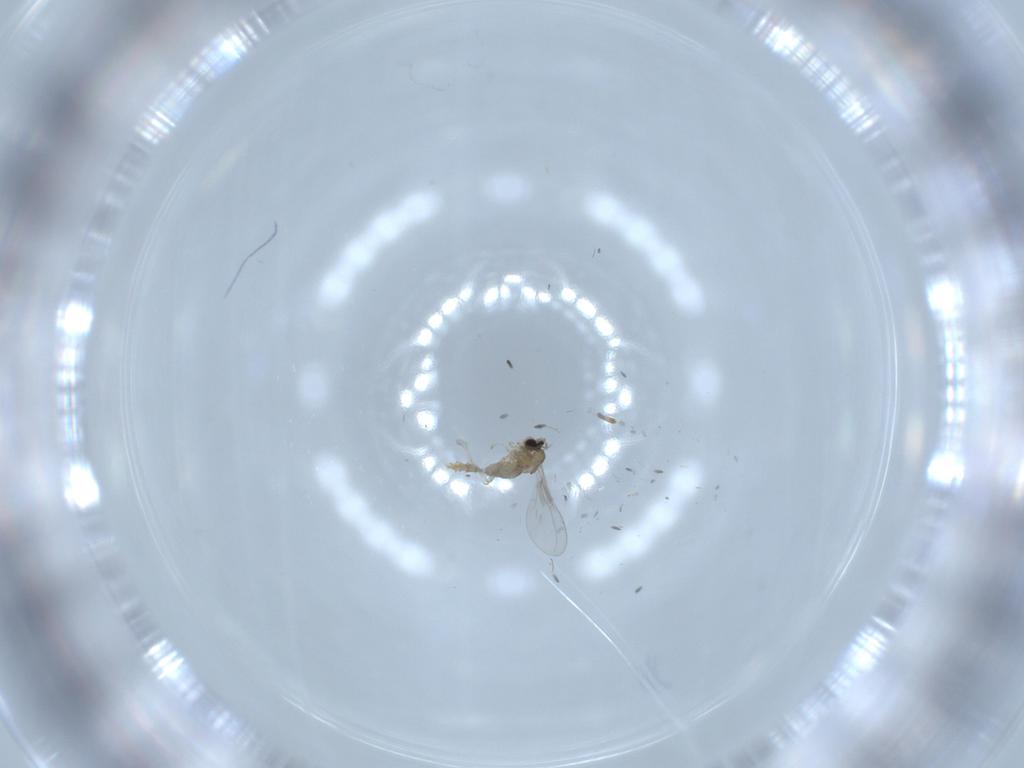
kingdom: Animalia
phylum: Arthropoda
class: Insecta
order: Diptera
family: Cecidomyiidae
